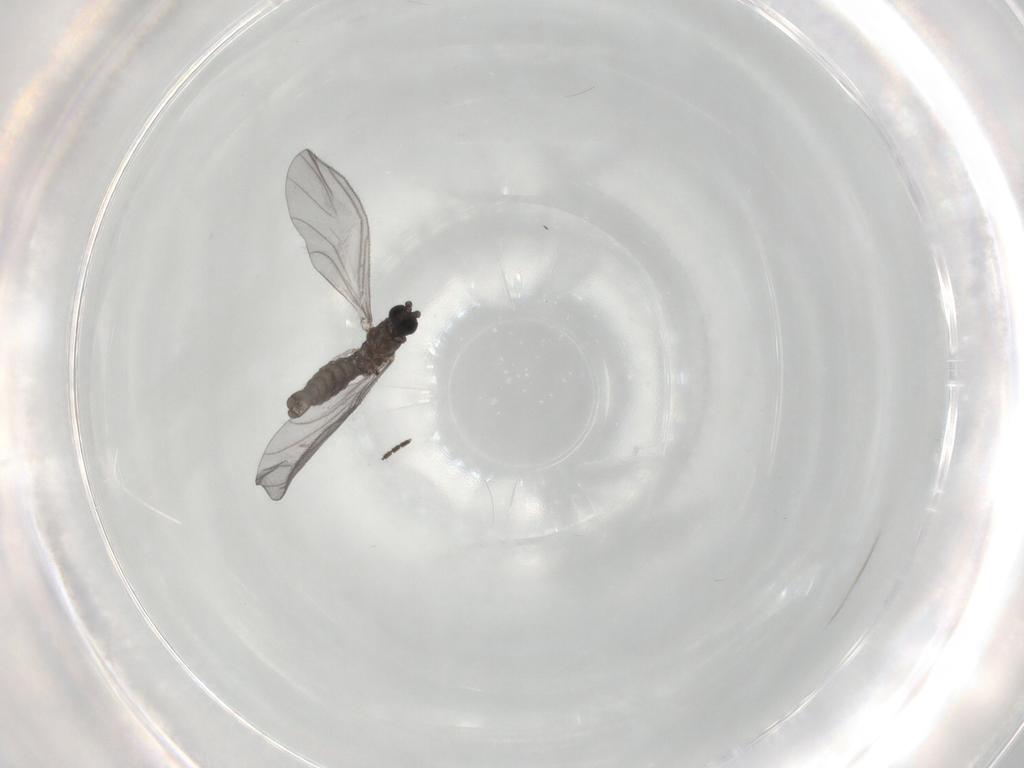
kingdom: Animalia
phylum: Arthropoda
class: Insecta
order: Diptera
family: Sciaridae
